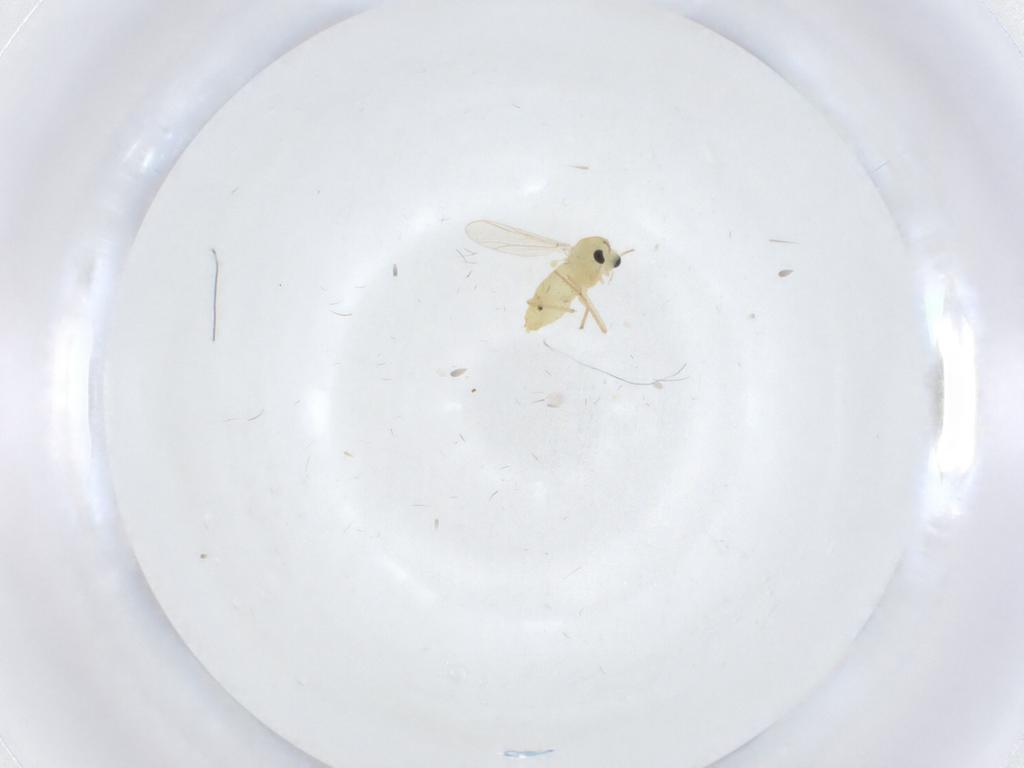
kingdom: Animalia
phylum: Arthropoda
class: Insecta
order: Diptera
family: Chironomidae
